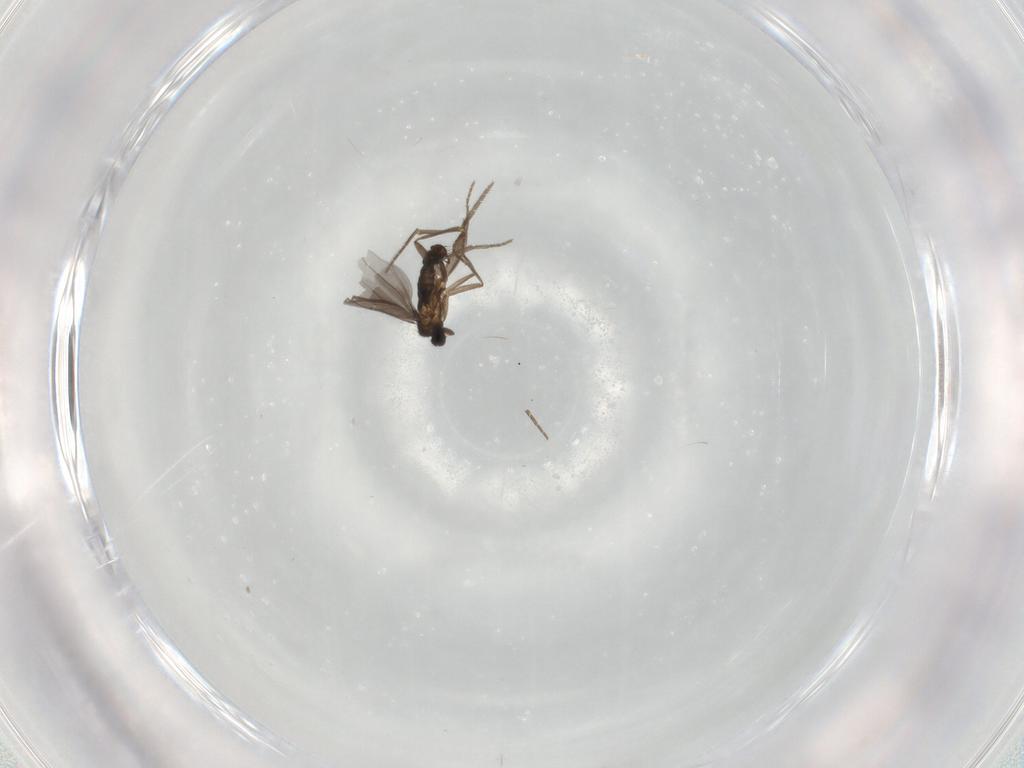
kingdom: Animalia
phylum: Arthropoda
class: Insecta
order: Diptera
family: Phoridae
